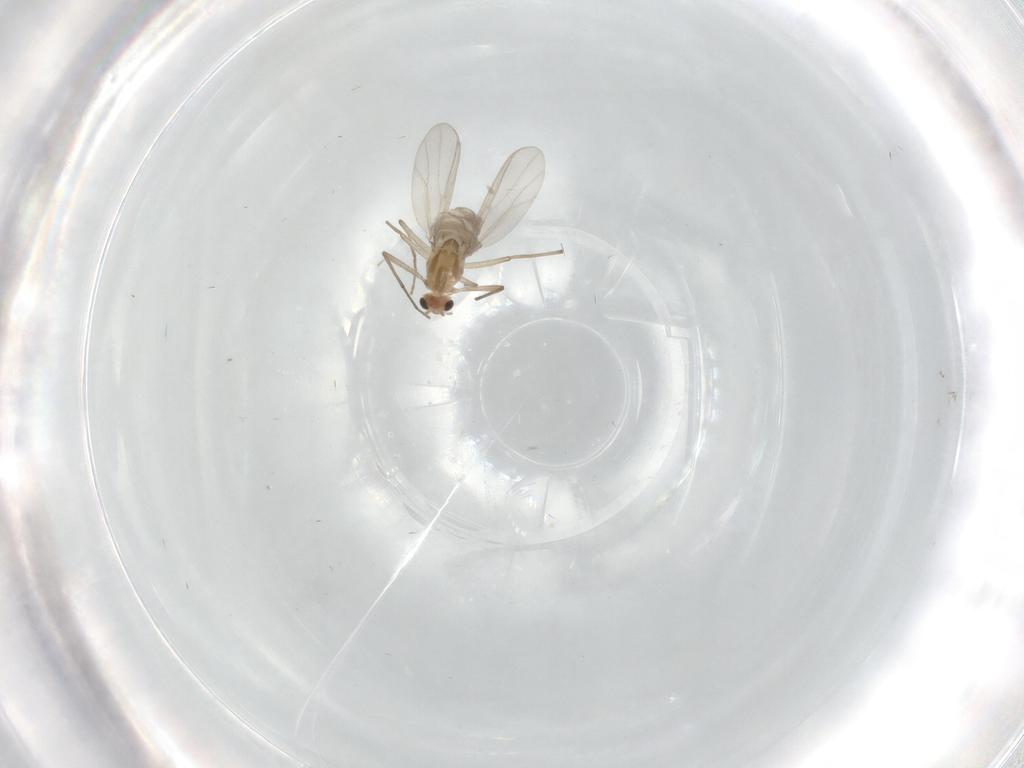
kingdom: Animalia
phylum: Arthropoda
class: Insecta
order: Diptera
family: Chironomidae
